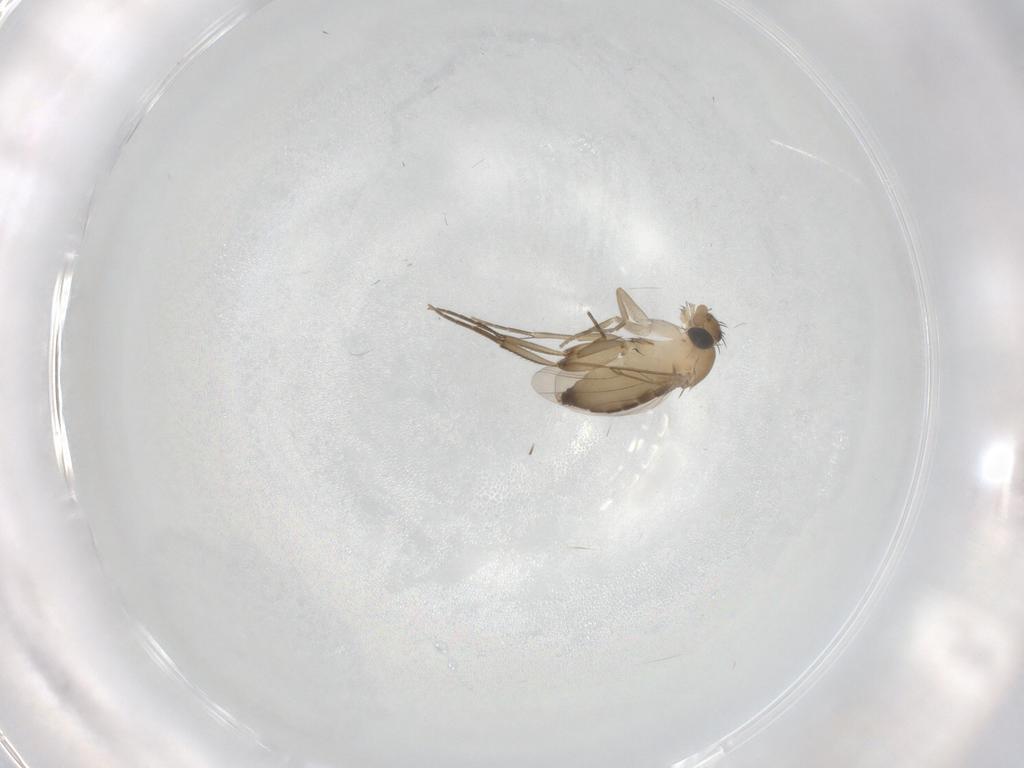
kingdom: Animalia
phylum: Arthropoda
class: Insecta
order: Diptera
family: Phoridae
